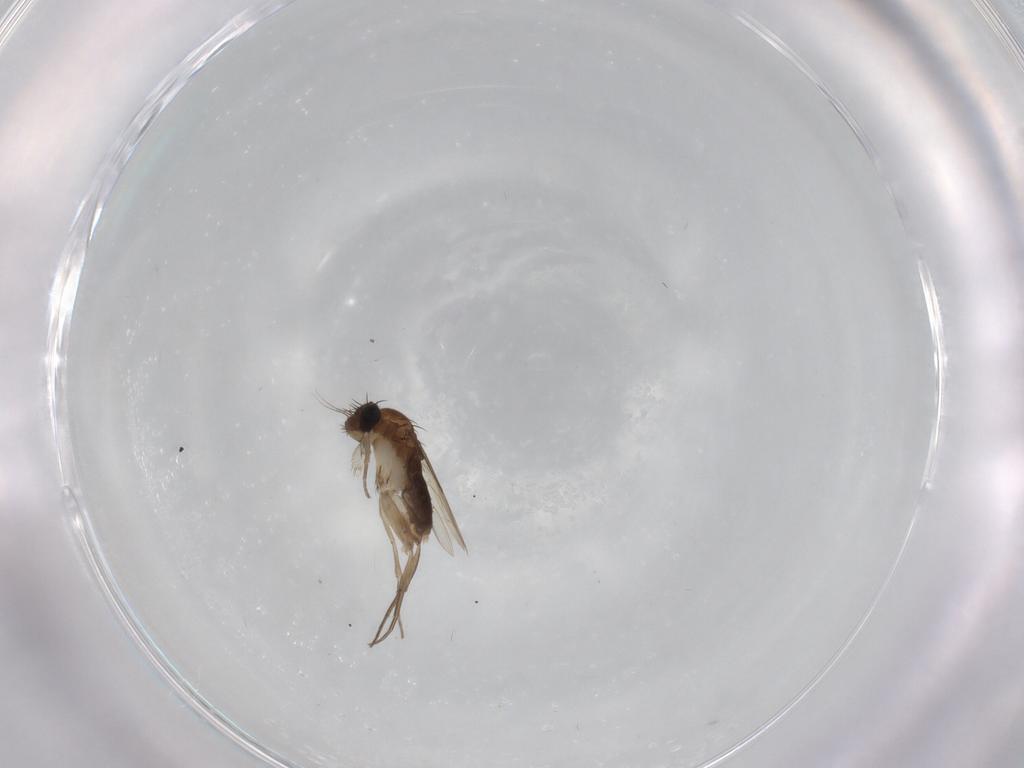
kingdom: Animalia
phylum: Arthropoda
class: Insecta
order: Diptera
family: Phoridae
